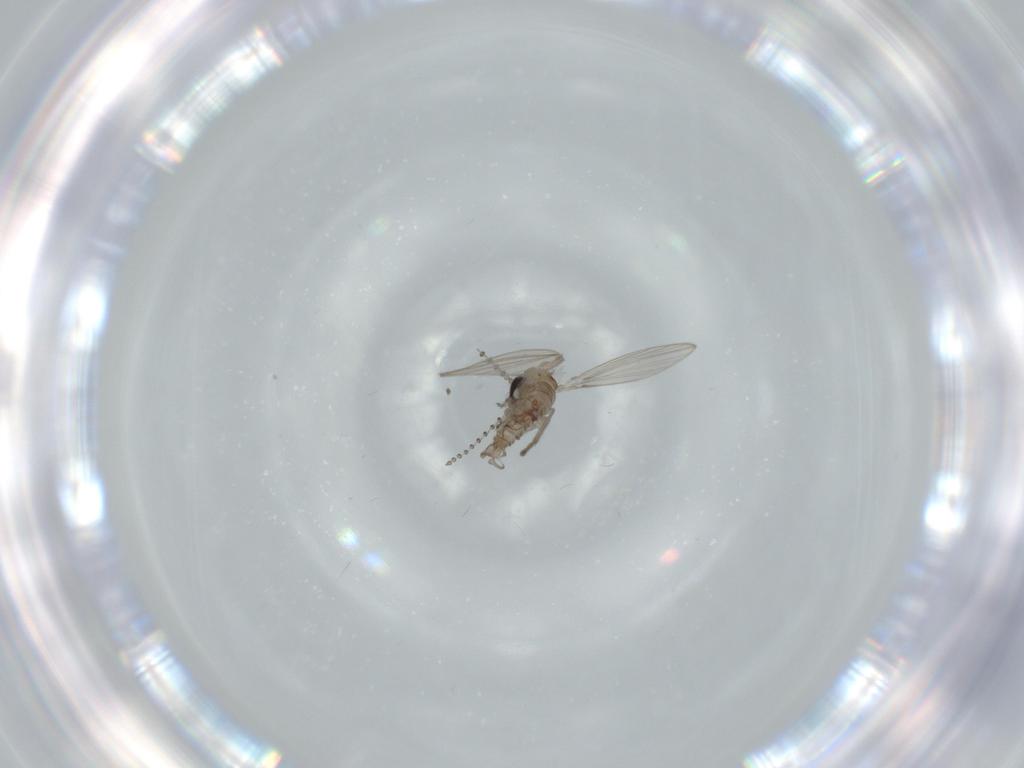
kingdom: Animalia
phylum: Arthropoda
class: Insecta
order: Diptera
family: Psychodidae
